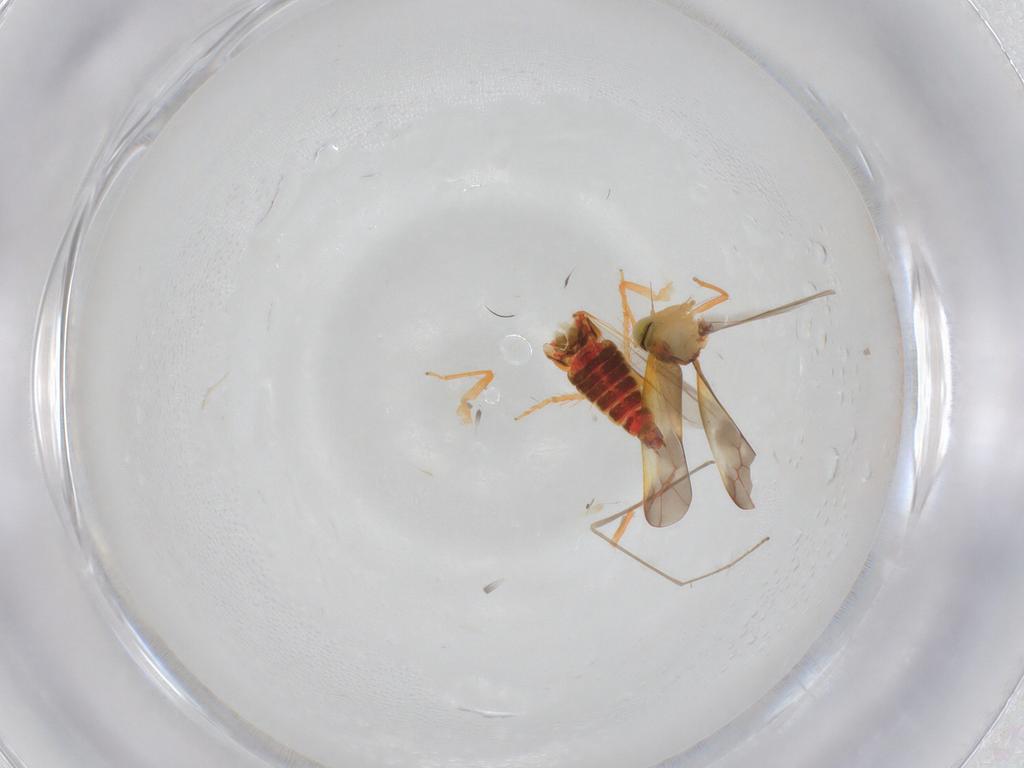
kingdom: Animalia
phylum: Arthropoda
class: Insecta
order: Hemiptera
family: Cicadellidae
